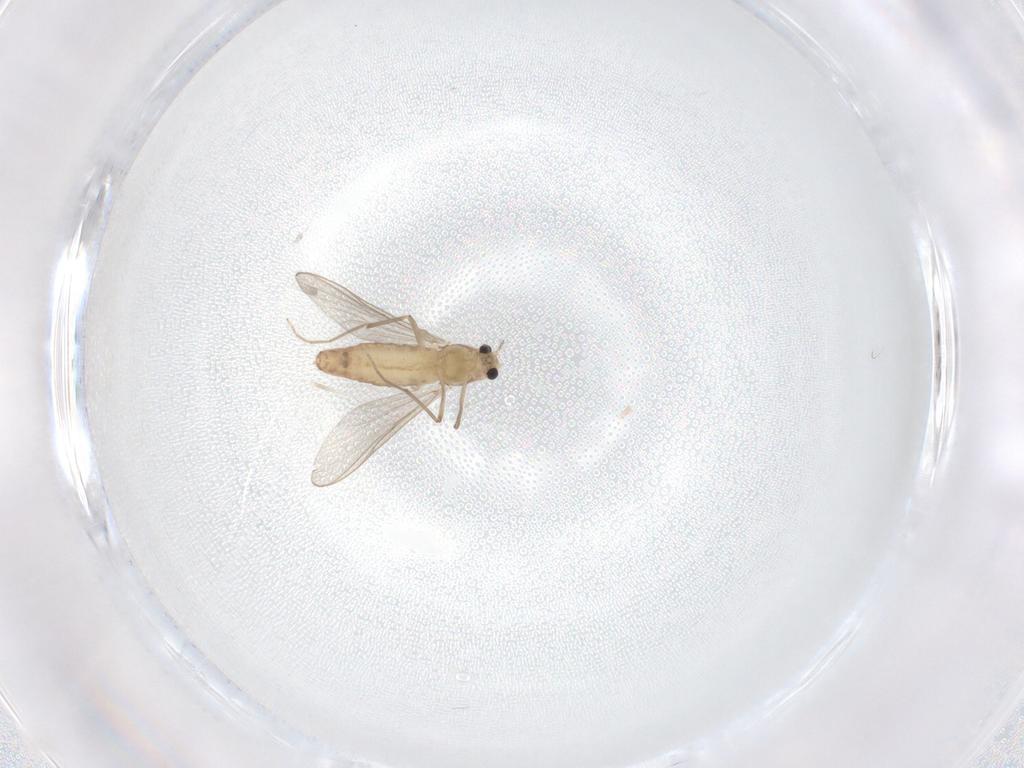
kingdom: Animalia
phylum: Arthropoda
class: Insecta
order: Diptera
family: Chironomidae
